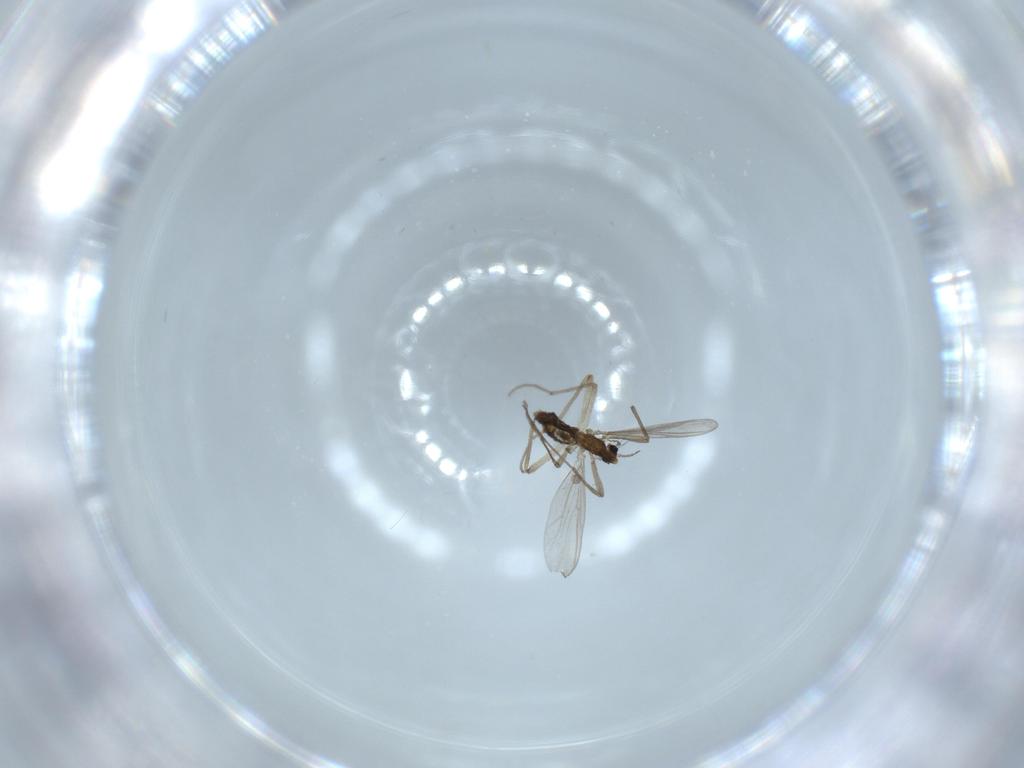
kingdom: Animalia
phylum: Arthropoda
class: Insecta
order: Diptera
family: Chironomidae
